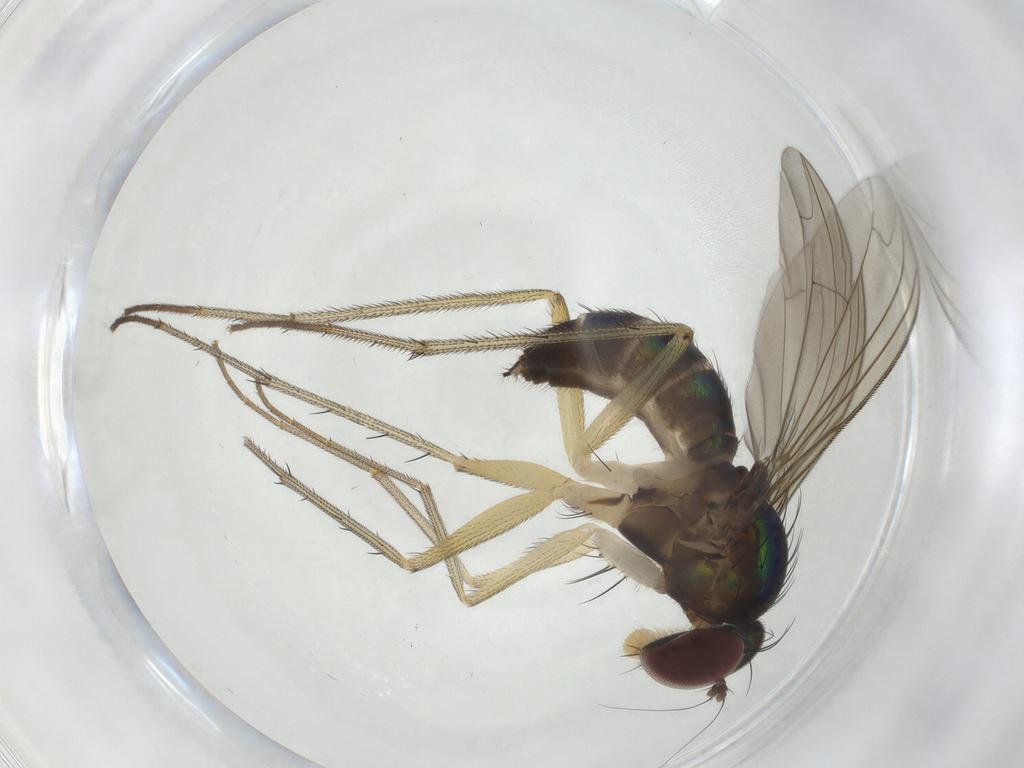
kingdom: Animalia
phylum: Arthropoda
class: Insecta
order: Diptera
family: Dolichopodidae
